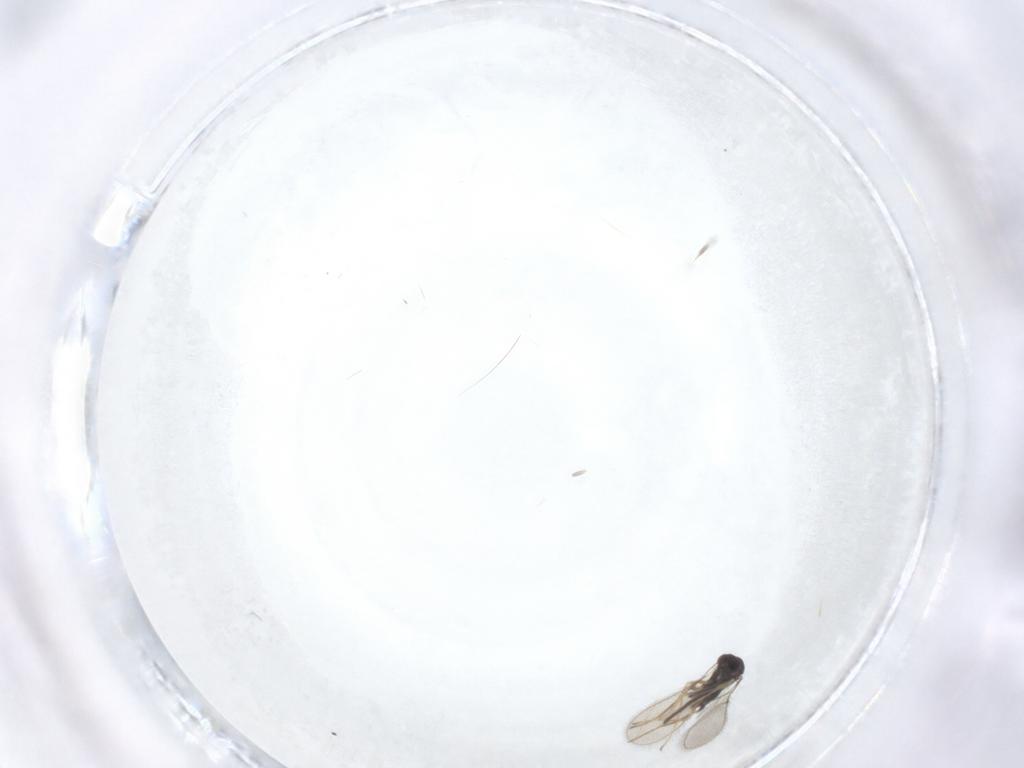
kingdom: Animalia
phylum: Arthropoda
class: Insecta
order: Diptera
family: Cecidomyiidae
